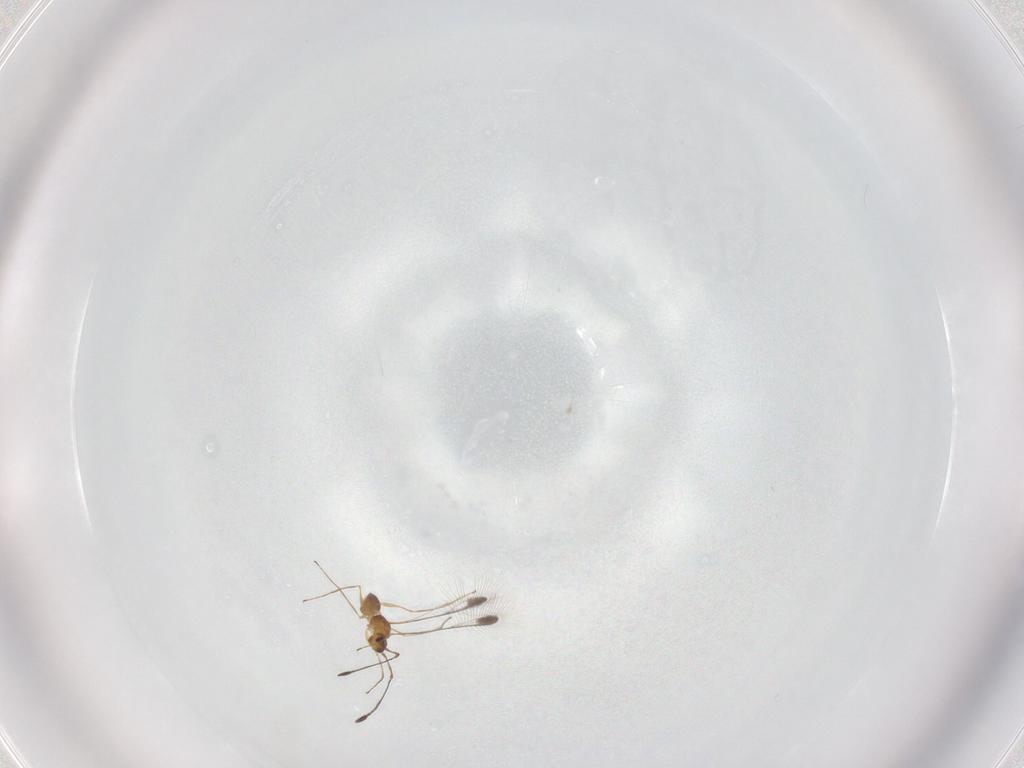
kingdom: Animalia
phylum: Arthropoda
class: Insecta
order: Hymenoptera
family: Mymaridae
